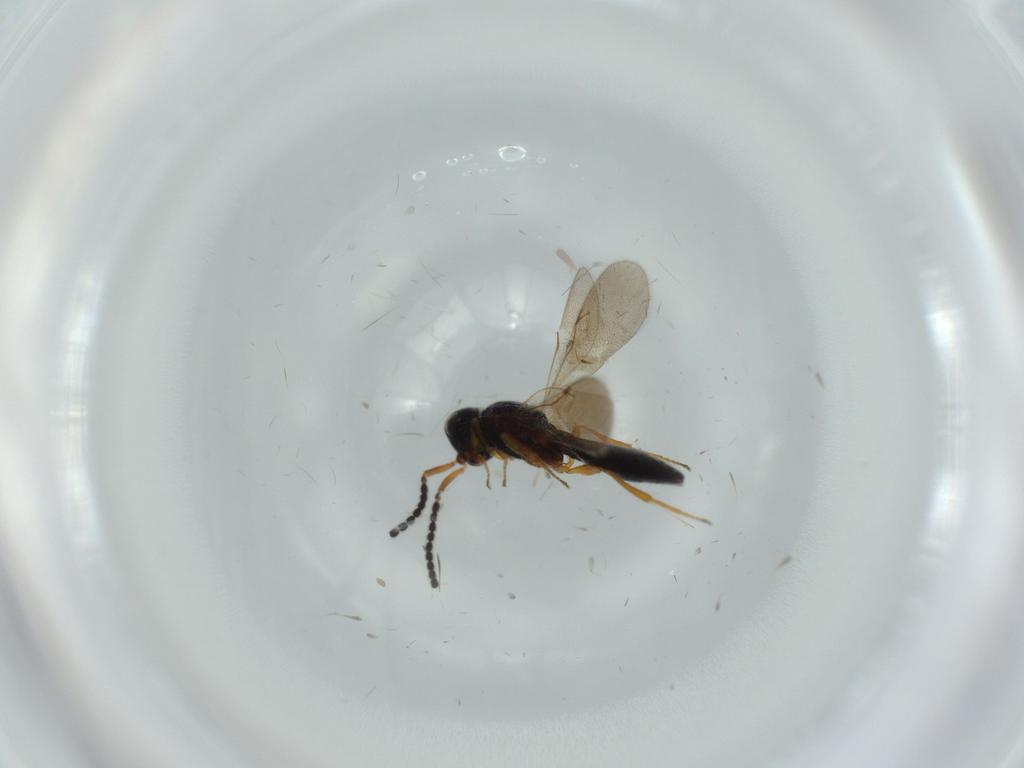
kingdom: Animalia
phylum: Arthropoda
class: Insecta
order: Hymenoptera
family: Scelionidae
